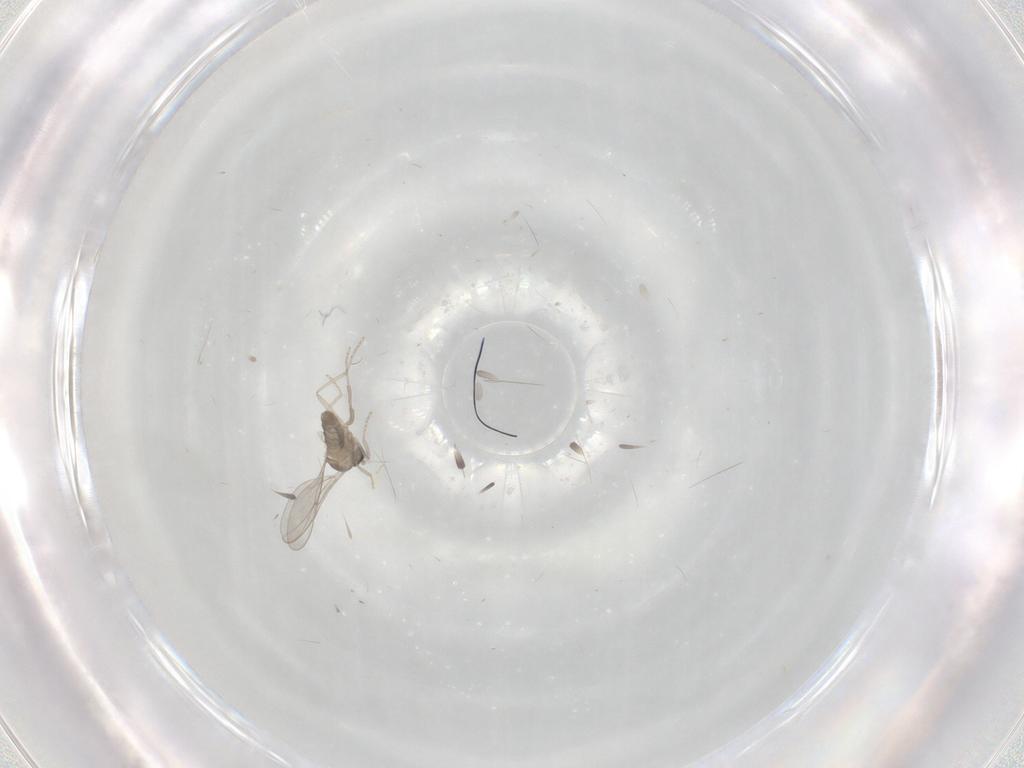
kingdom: Animalia
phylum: Arthropoda
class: Insecta
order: Diptera
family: Cecidomyiidae
